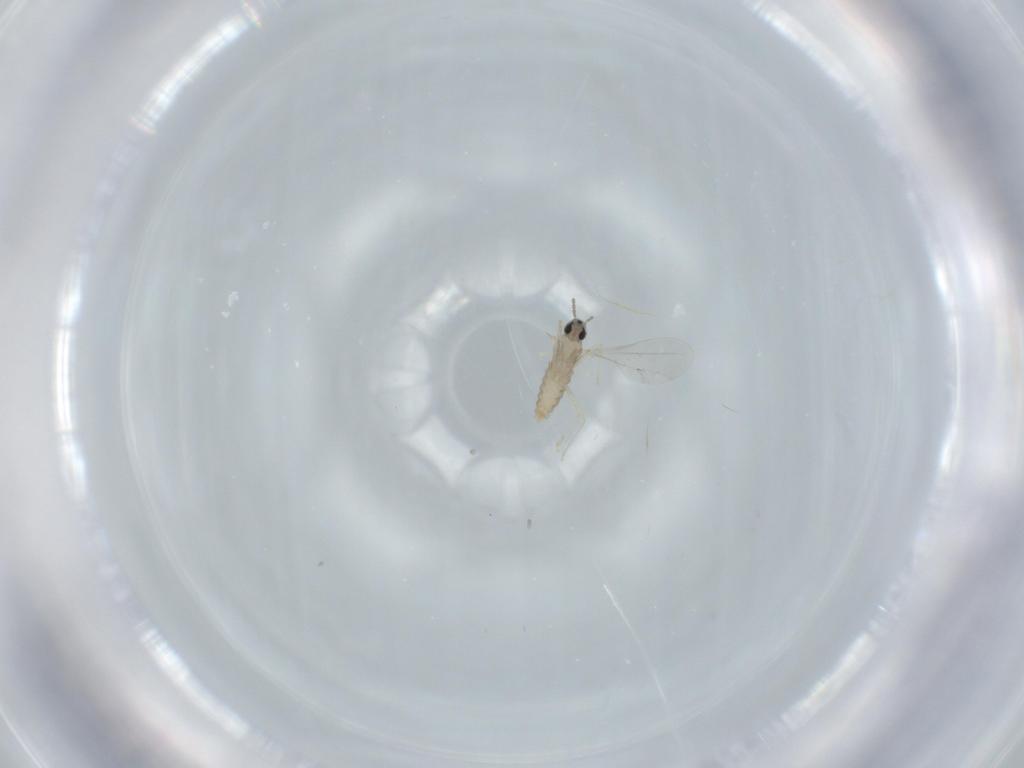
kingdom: Animalia
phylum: Arthropoda
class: Insecta
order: Diptera
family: Cecidomyiidae
